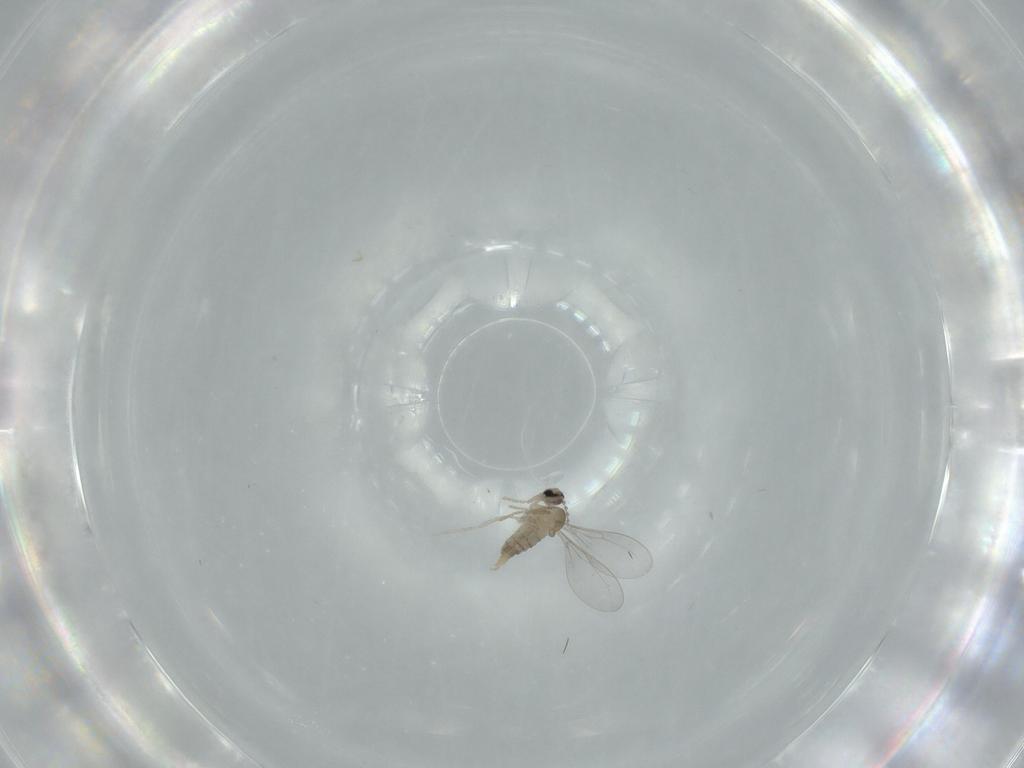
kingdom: Animalia
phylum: Arthropoda
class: Insecta
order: Diptera
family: Cecidomyiidae
